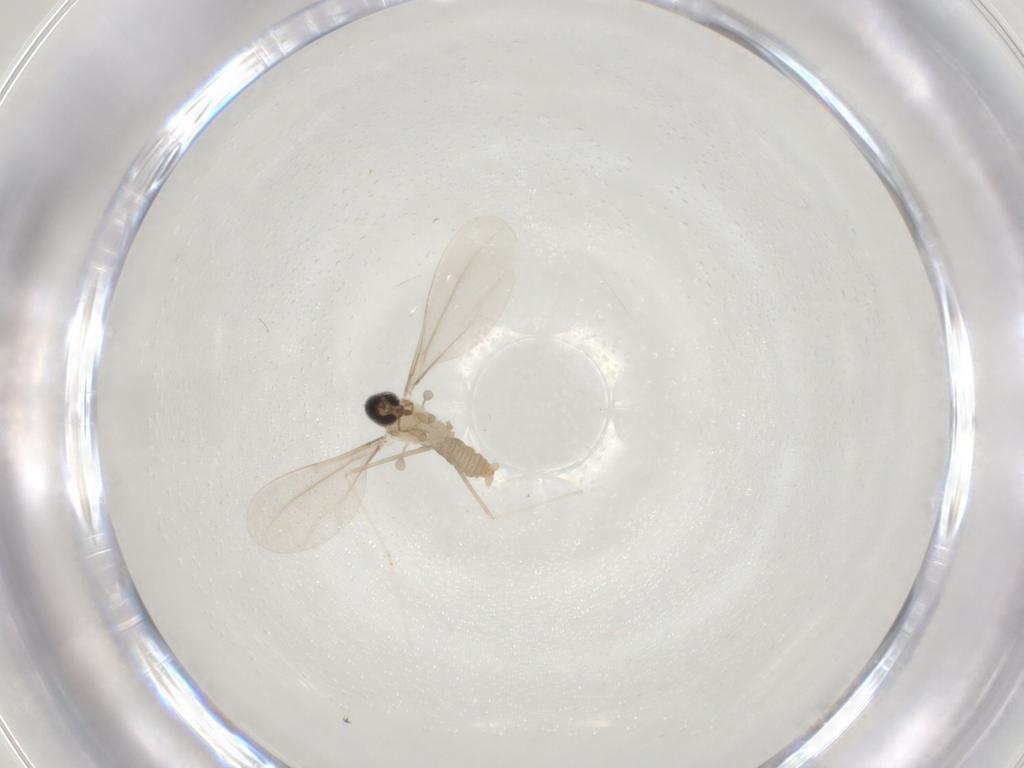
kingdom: Animalia
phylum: Arthropoda
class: Insecta
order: Diptera
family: Cecidomyiidae
